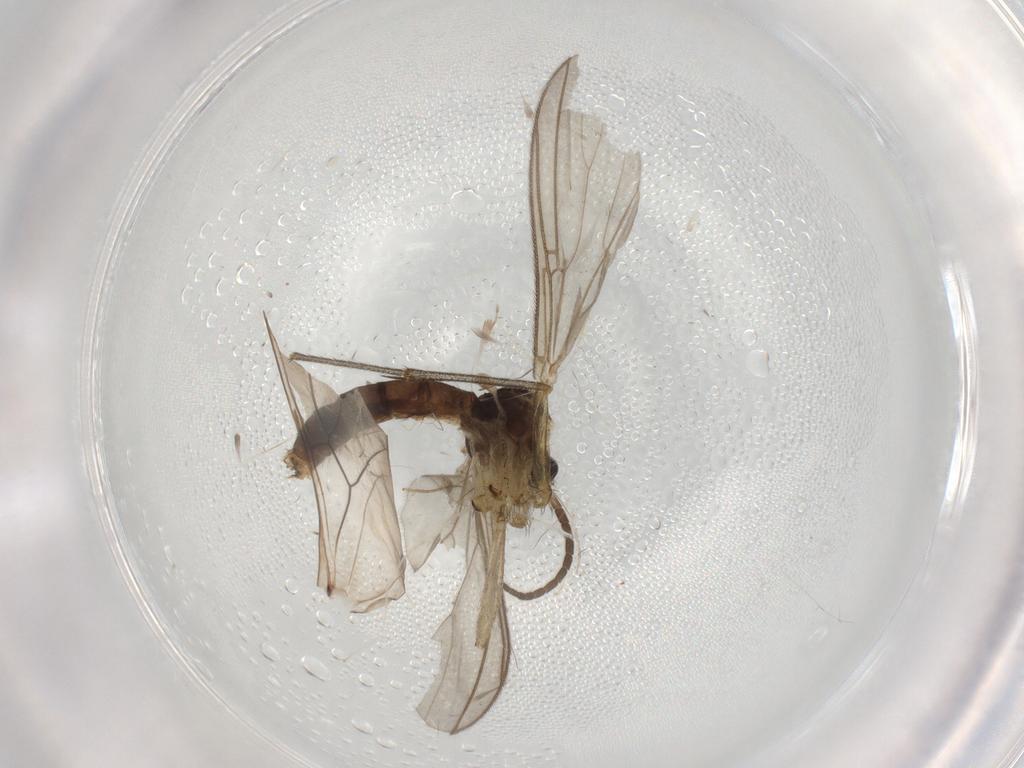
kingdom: Animalia
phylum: Arthropoda
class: Insecta
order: Diptera
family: Mycetophilidae
